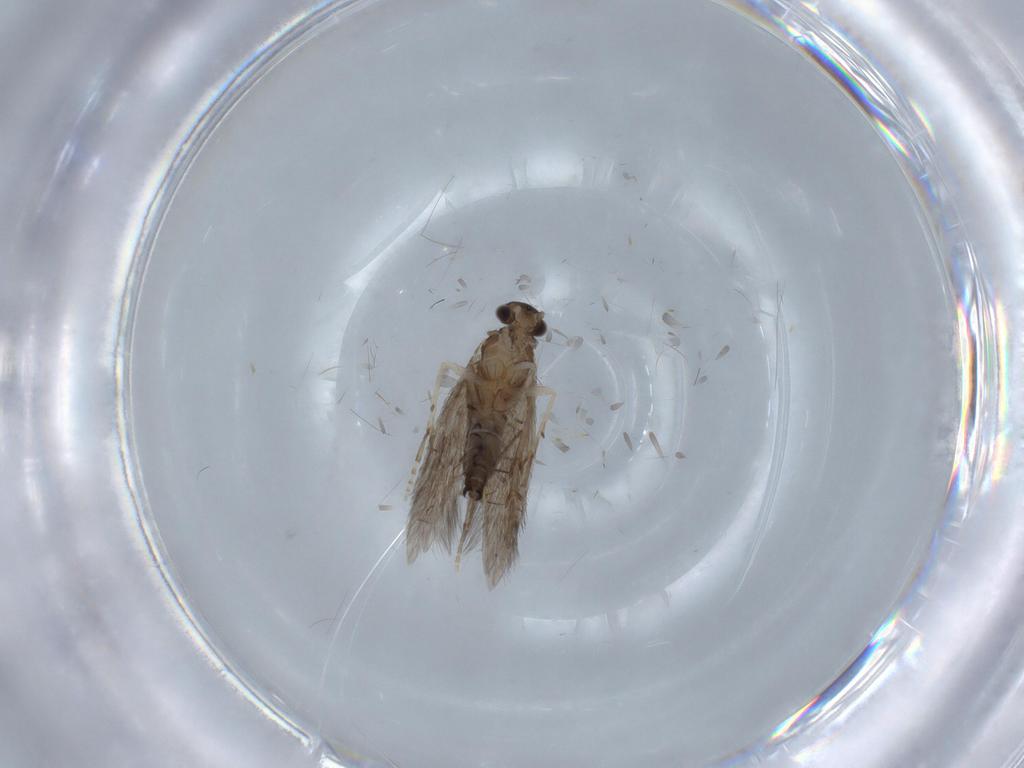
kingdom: Animalia
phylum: Arthropoda
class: Insecta
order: Trichoptera
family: Hydroptilidae
